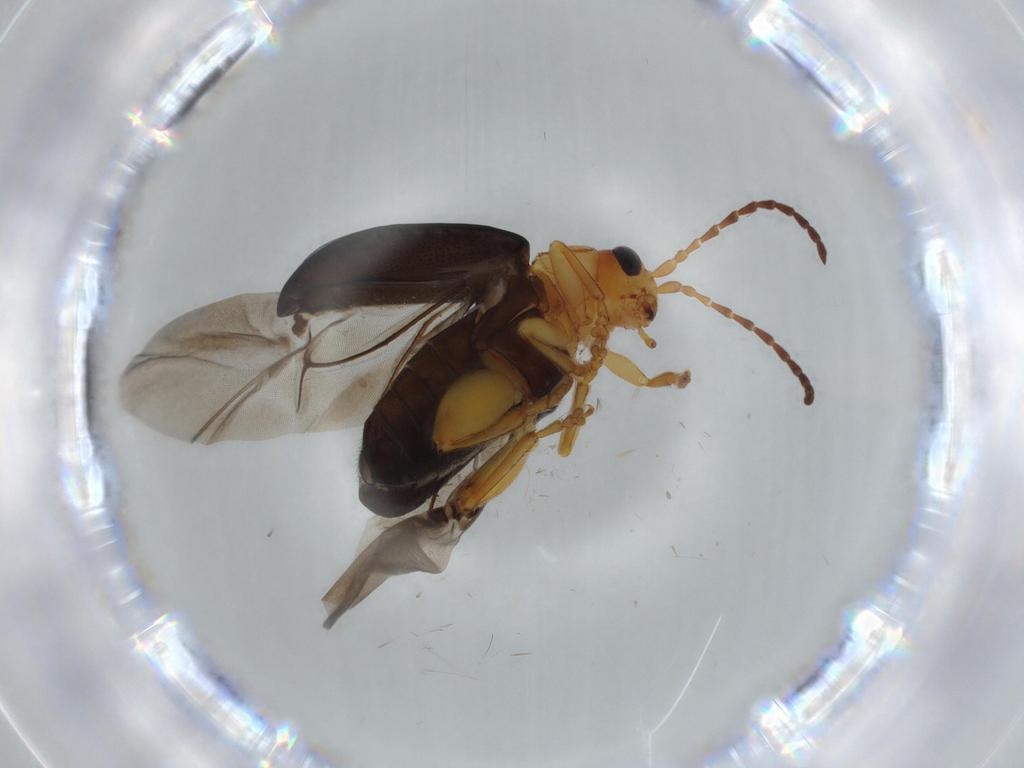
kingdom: Animalia
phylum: Arthropoda
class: Insecta
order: Coleoptera
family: Chrysomelidae
